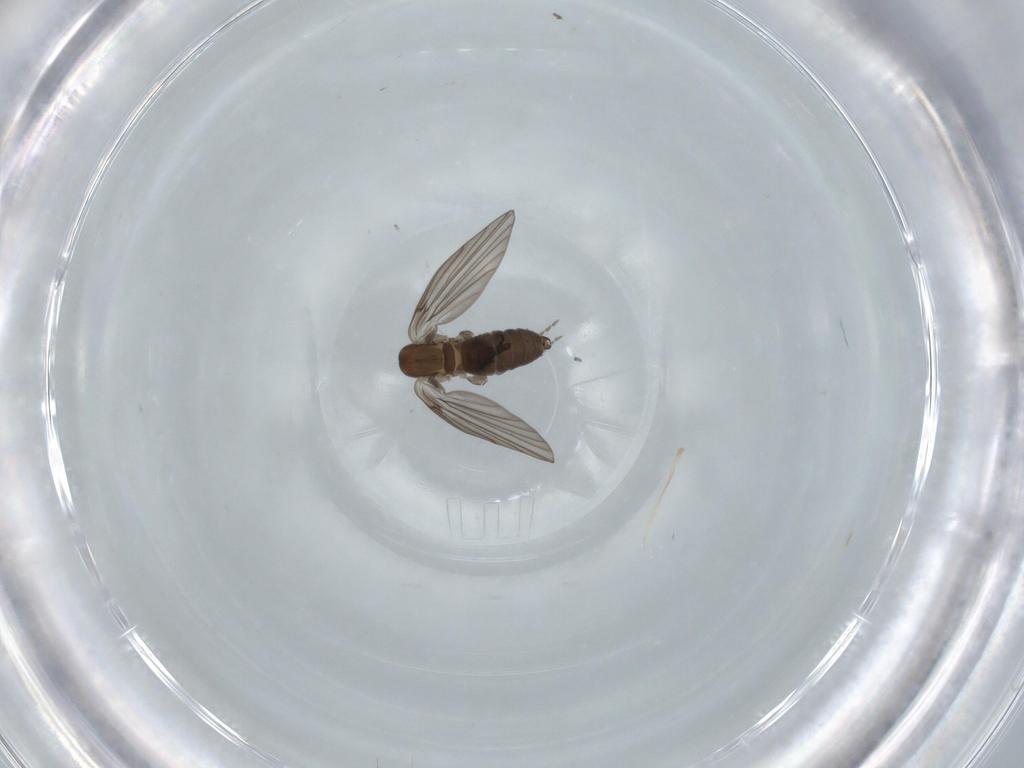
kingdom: Animalia
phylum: Arthropoda
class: Insecta
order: Diptera
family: Psychodidae
